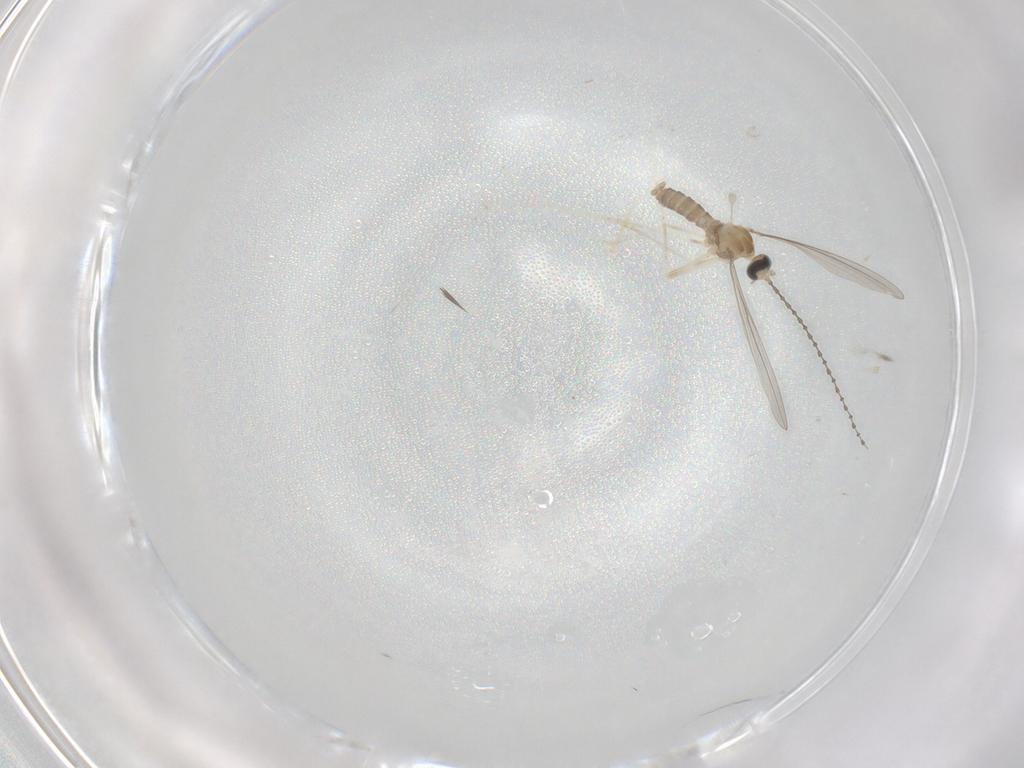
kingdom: Animalia
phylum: Arthropoda
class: Insecta
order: Diptera
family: Cecidomyiidae
